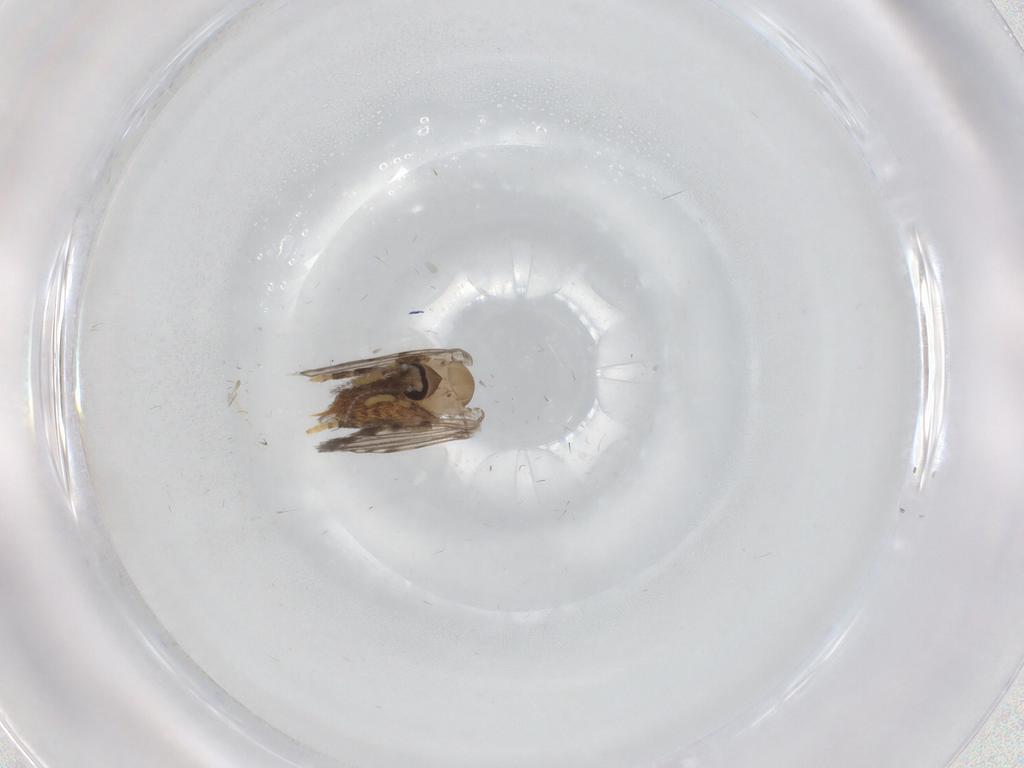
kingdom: Animalia
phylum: Arthropoda
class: Insecta
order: Diptera
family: Psychodidae
